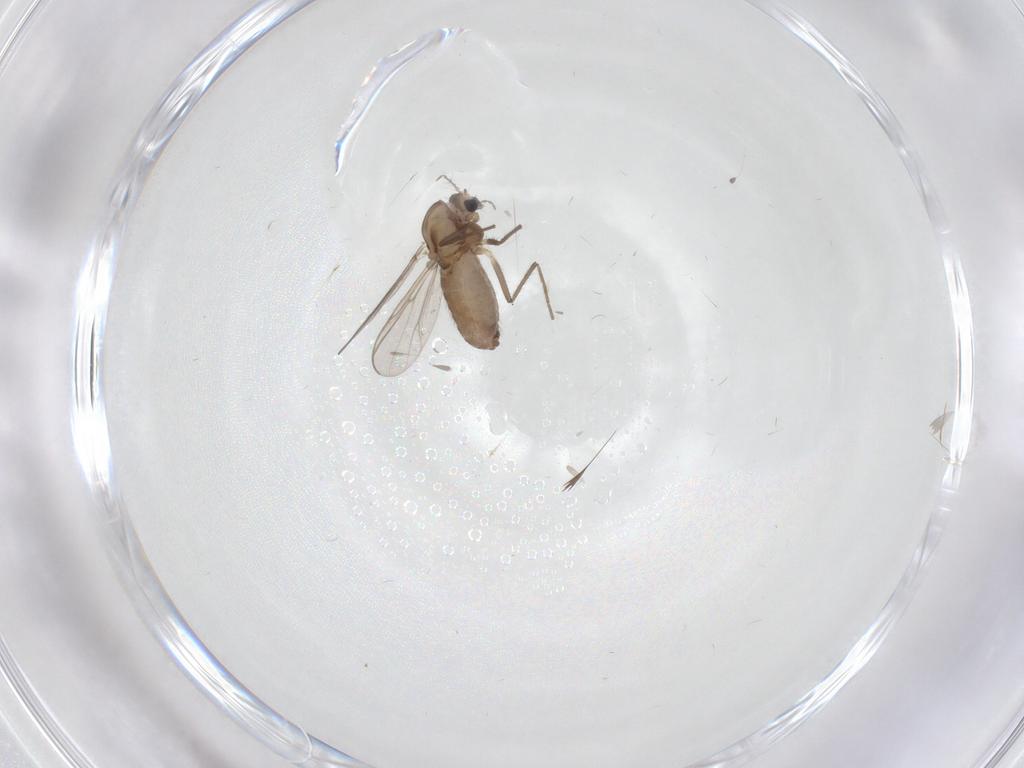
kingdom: Animalia
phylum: Arthropoda
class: Insecta
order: Diptera
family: Chironomidae
